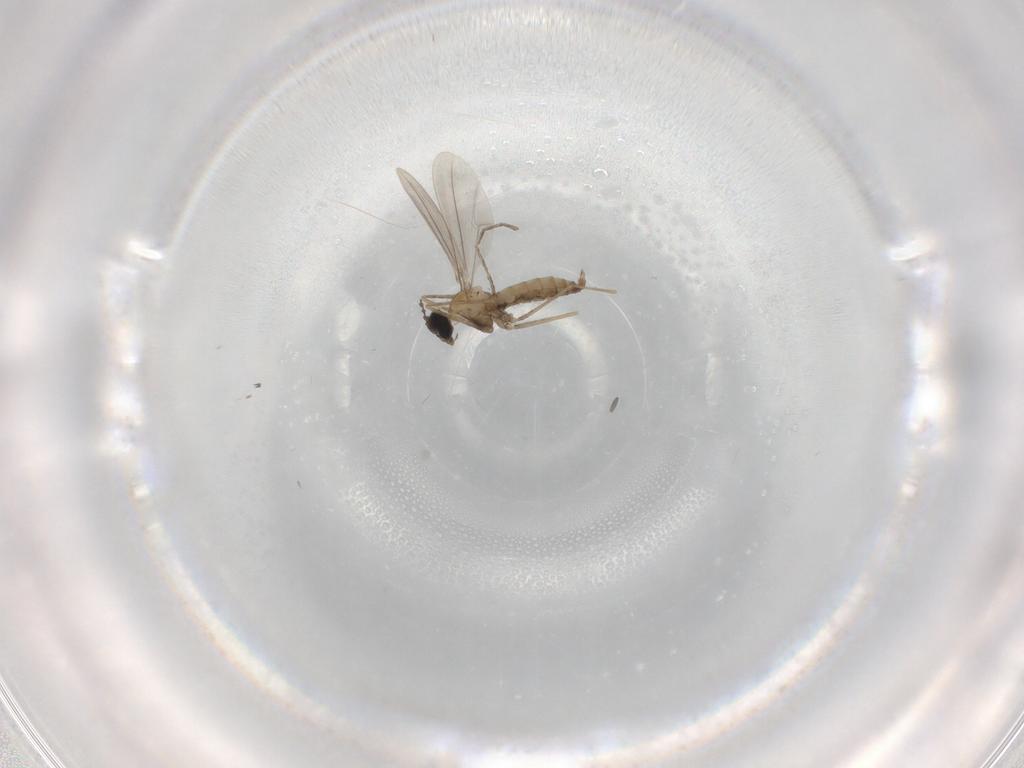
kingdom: Animalia
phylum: Arthropoda
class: Insecta
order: Diptera
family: Cecidomyiidae
